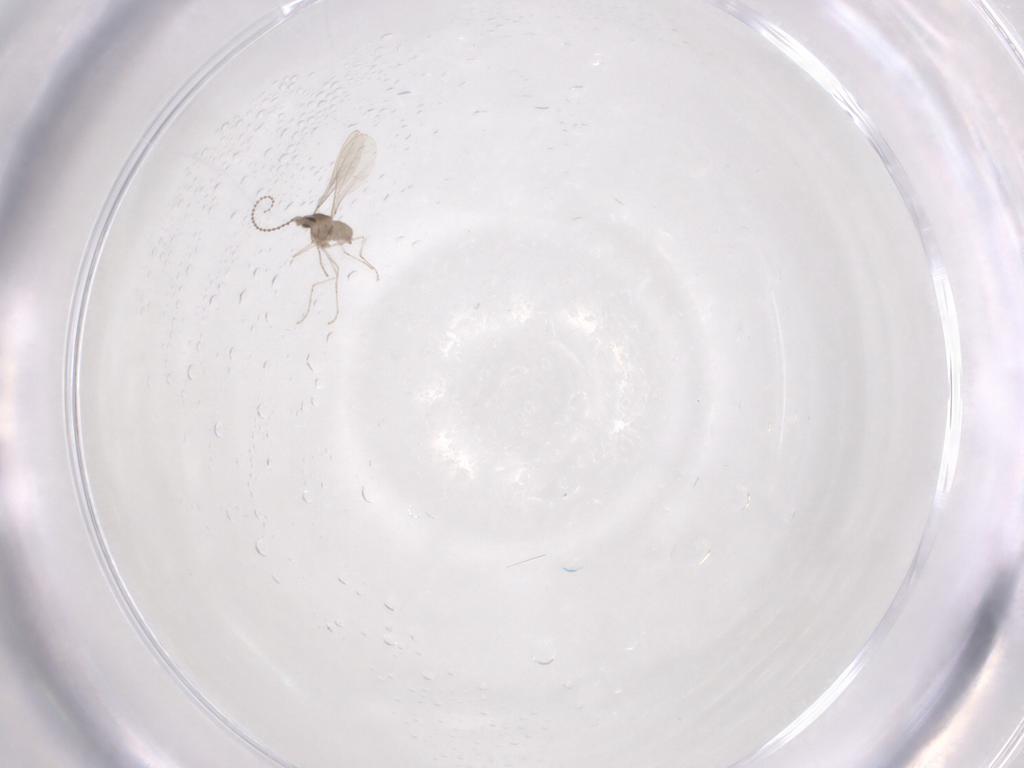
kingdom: Animalia
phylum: Arthropoda
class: Insecta
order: Diptera
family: Cecidomyiidae
